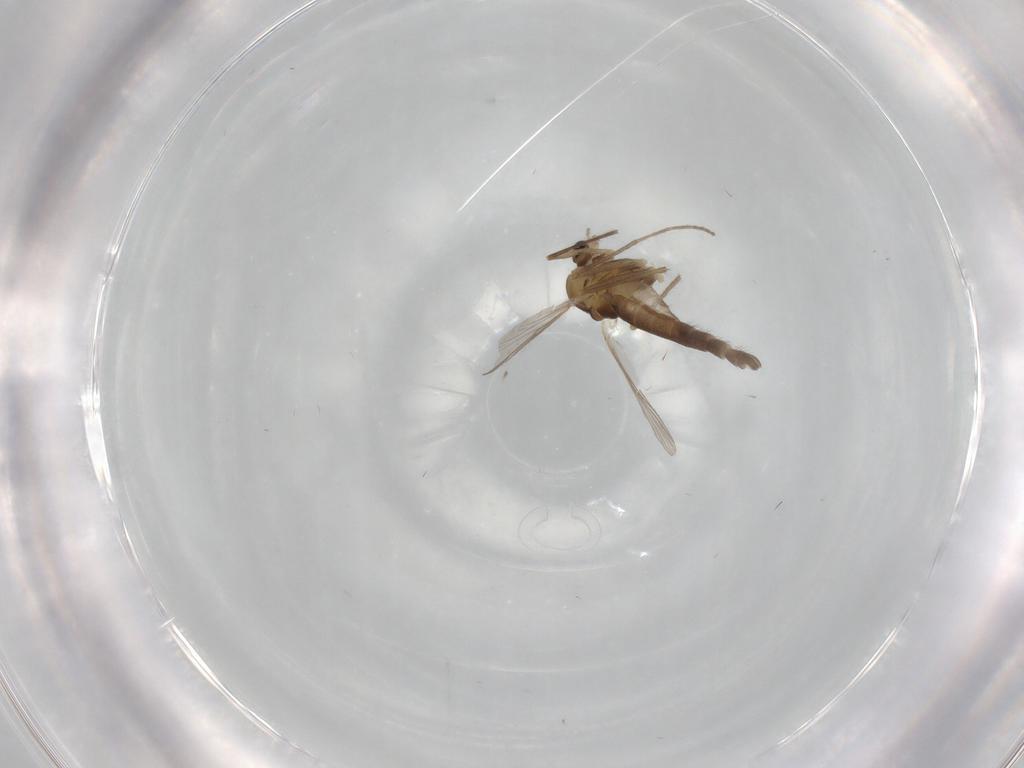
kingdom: Animalia
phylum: Arthropoda
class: Insecta
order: Diptera
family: Chironomidae
